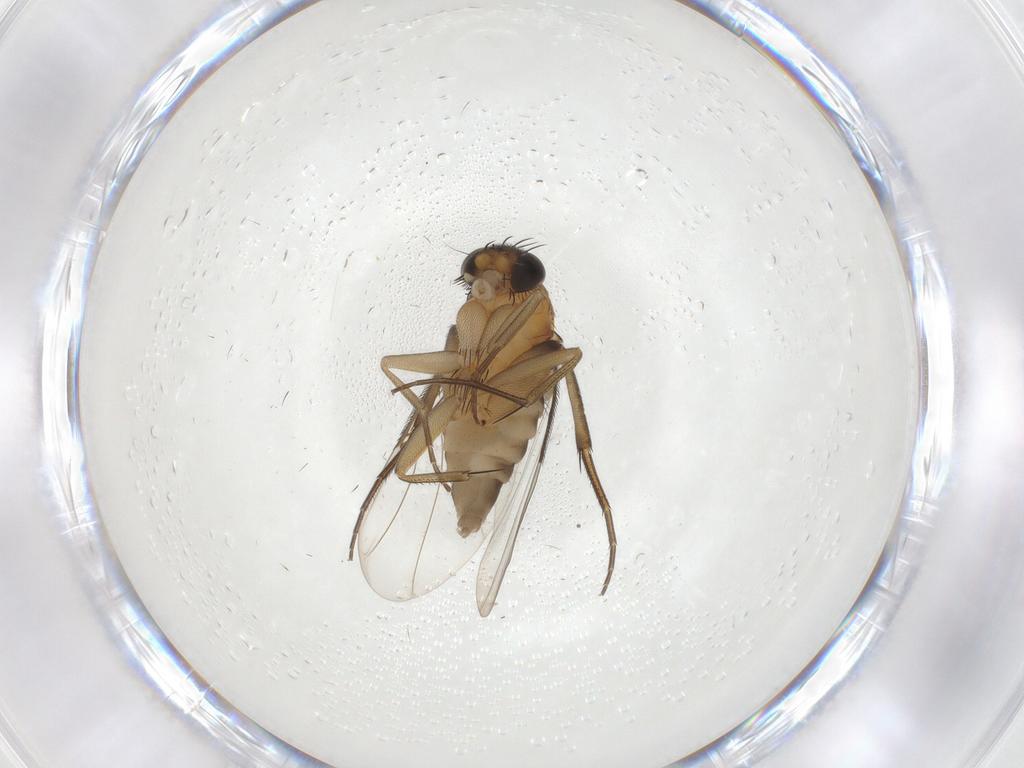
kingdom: Animalia
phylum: Arthropoda
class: Insecta
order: Diptera
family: Phoridae
